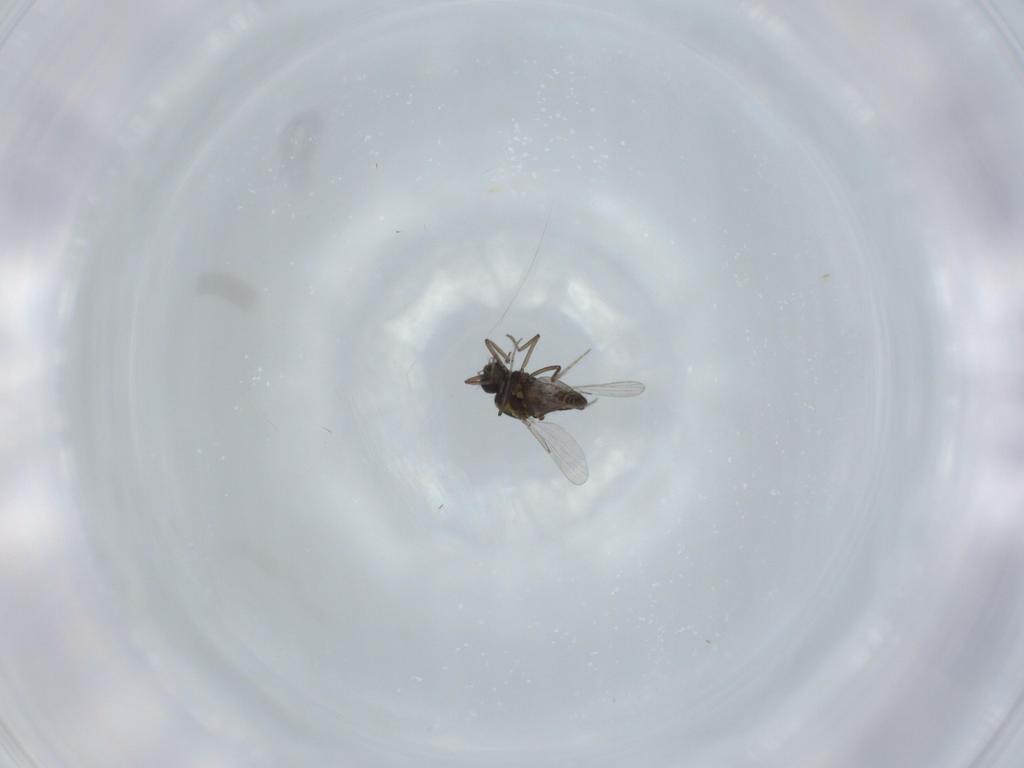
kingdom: Animalia
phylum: Arthropoda
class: Insecta
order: Diptera
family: Ceratopogonidae
